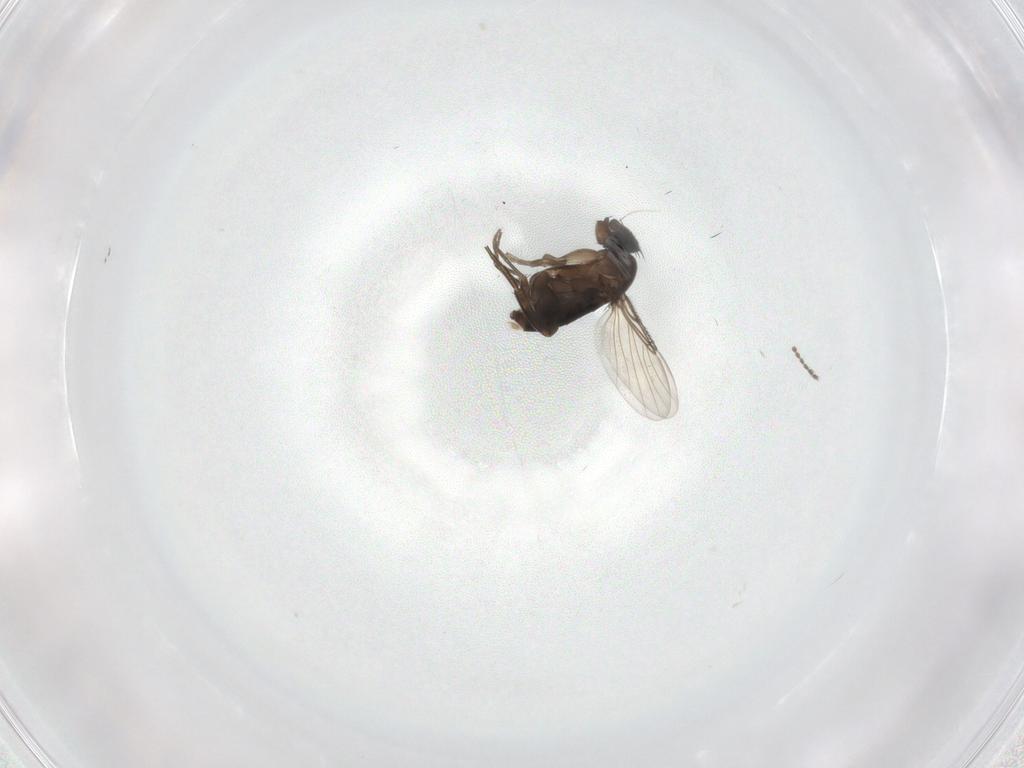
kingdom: Animalia
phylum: Arthropoda
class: Insecta
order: Diptera
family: Phoridae
